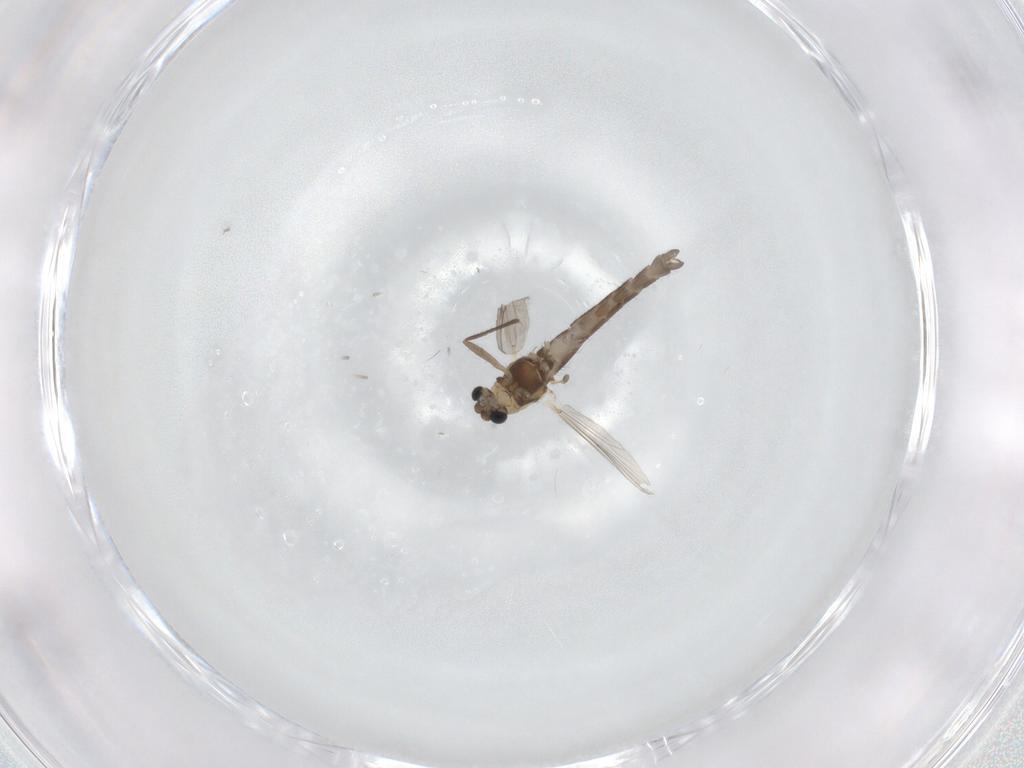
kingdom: Animalia
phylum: Arthropoda
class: Insecta
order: Diptera
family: Chironomidae
